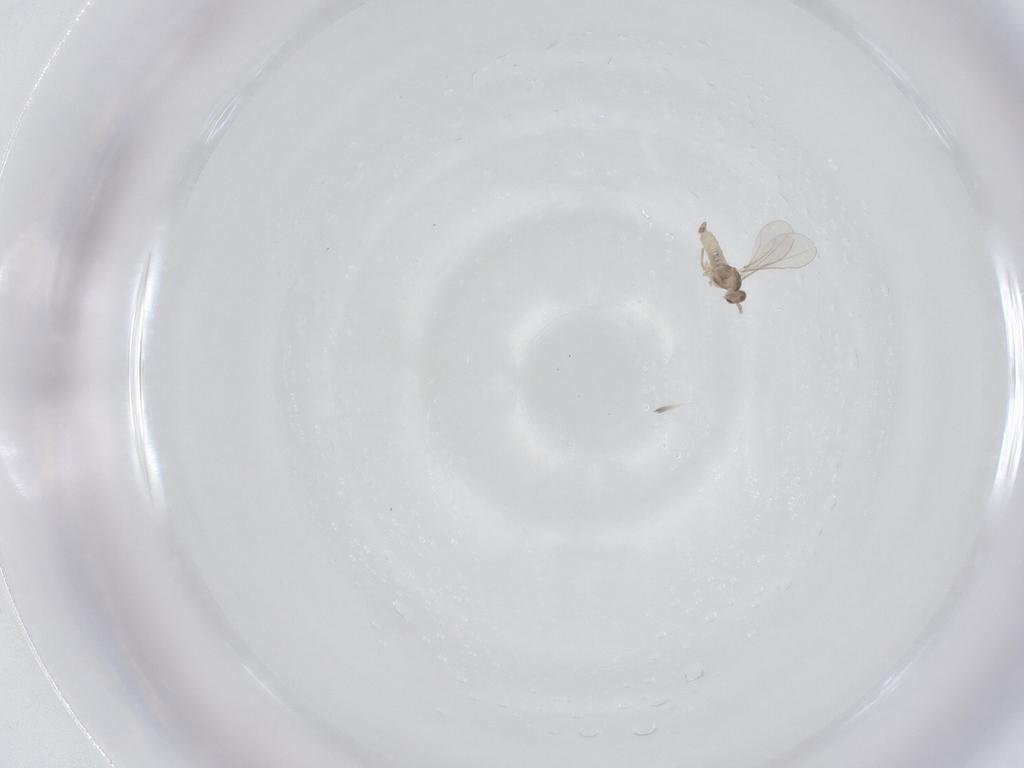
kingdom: Animalia
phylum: Arthropoda
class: Insecta
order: Diptera
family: Cecidomyiidae
